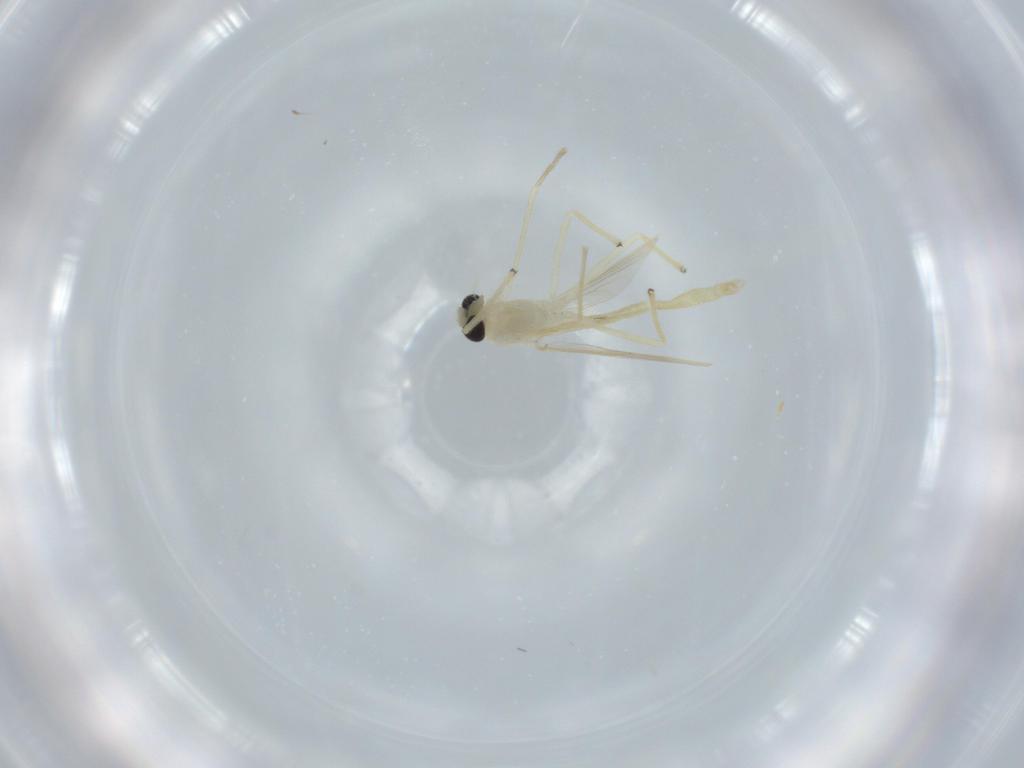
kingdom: Animalia
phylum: Arthropoda
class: Insecta
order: Diptera
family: Chironomidae
